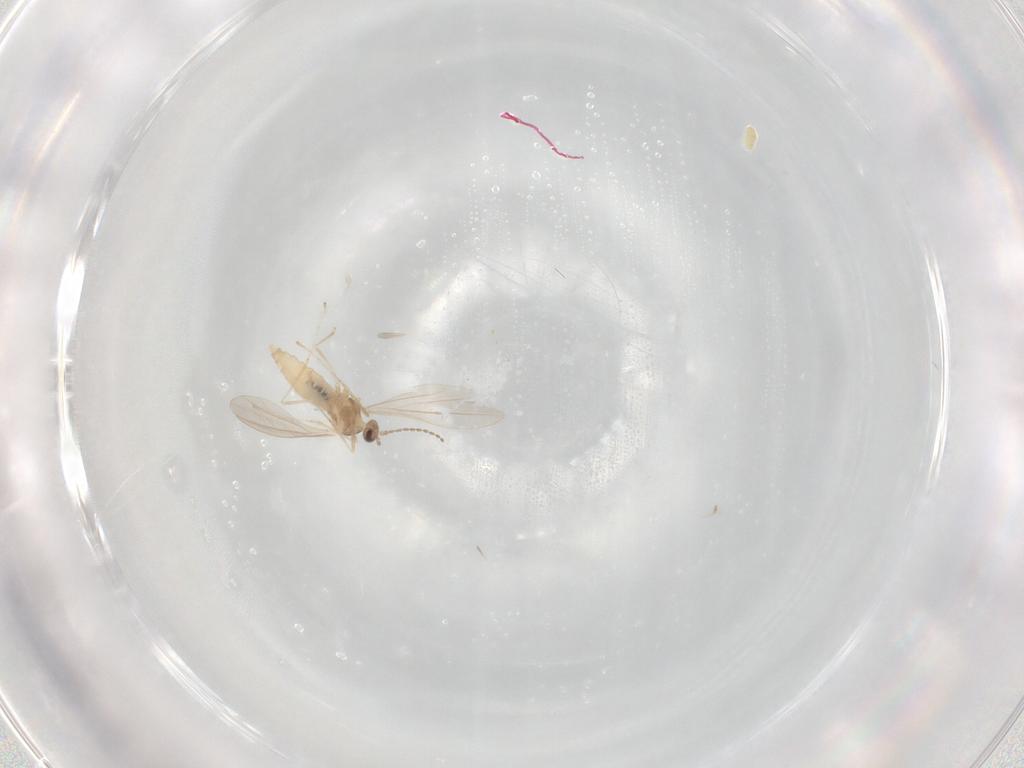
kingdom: Animalia
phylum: Arthropoda
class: Insecta
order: Diptera
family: Cecidomyiidae
